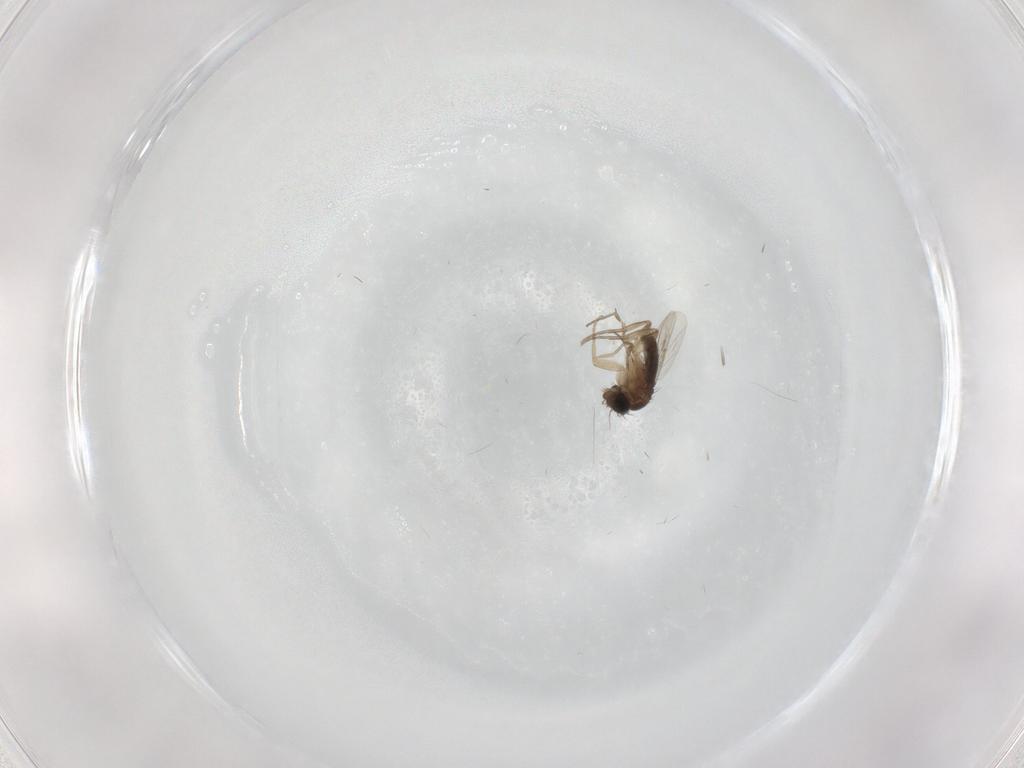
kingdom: Animalia
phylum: Arthropoda
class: Insecta
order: Diptera
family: Phoridae
